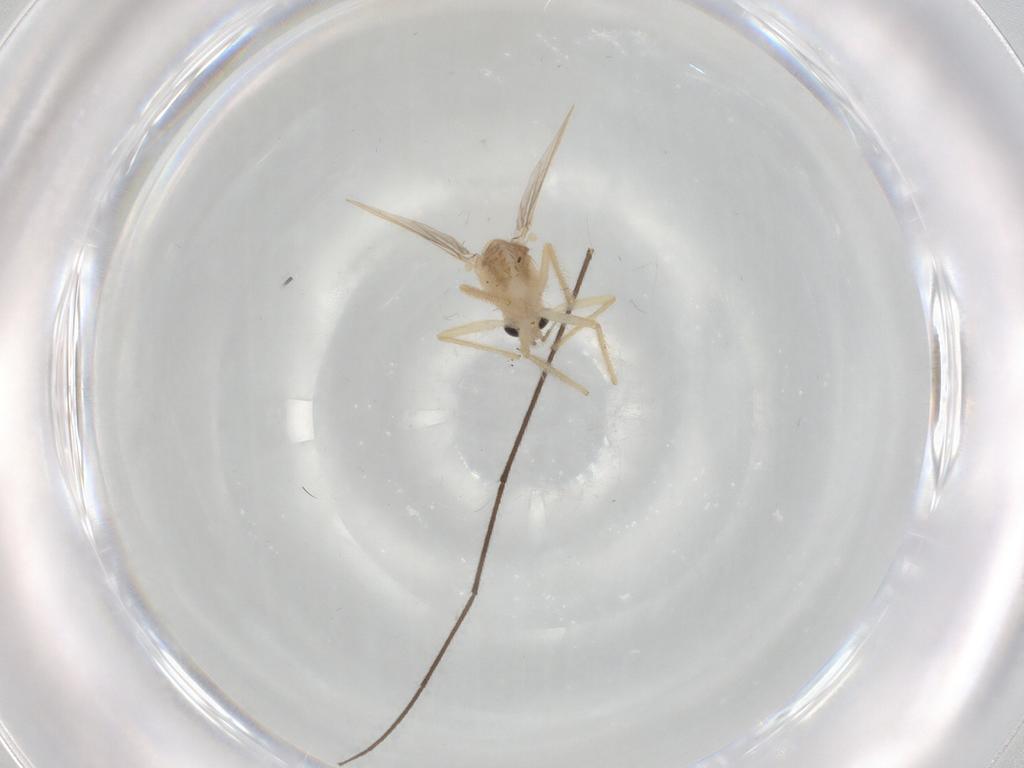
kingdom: Animalia
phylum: Arthropoda
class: Insecta
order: Diptera
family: Chironomidae
